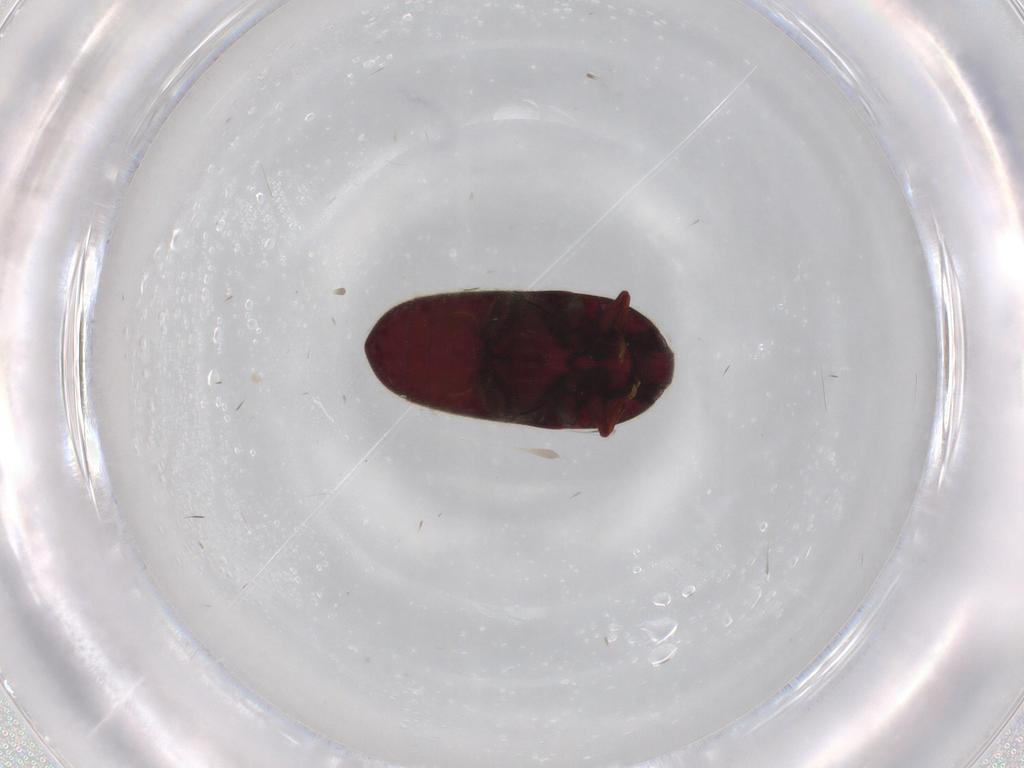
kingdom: Animalia
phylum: Arthropoda
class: Insecta
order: Coleoptera
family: Throscidae
